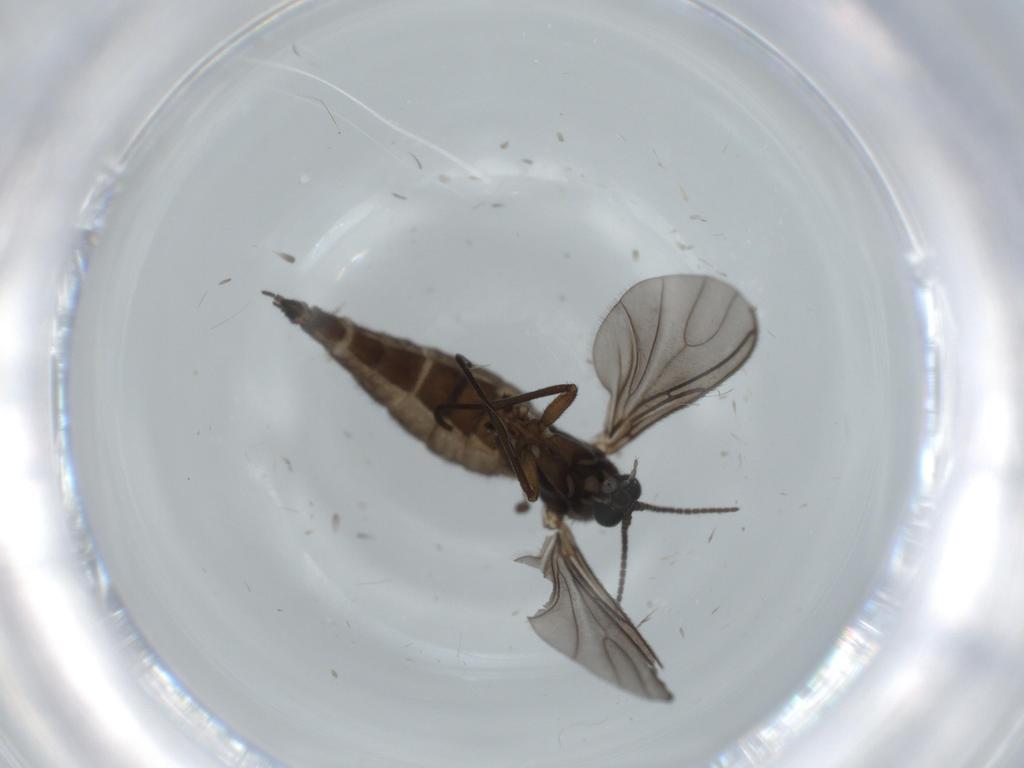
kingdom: Animalia
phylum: Arthropoda
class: Insecta
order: Diptera
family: Sciaridae
